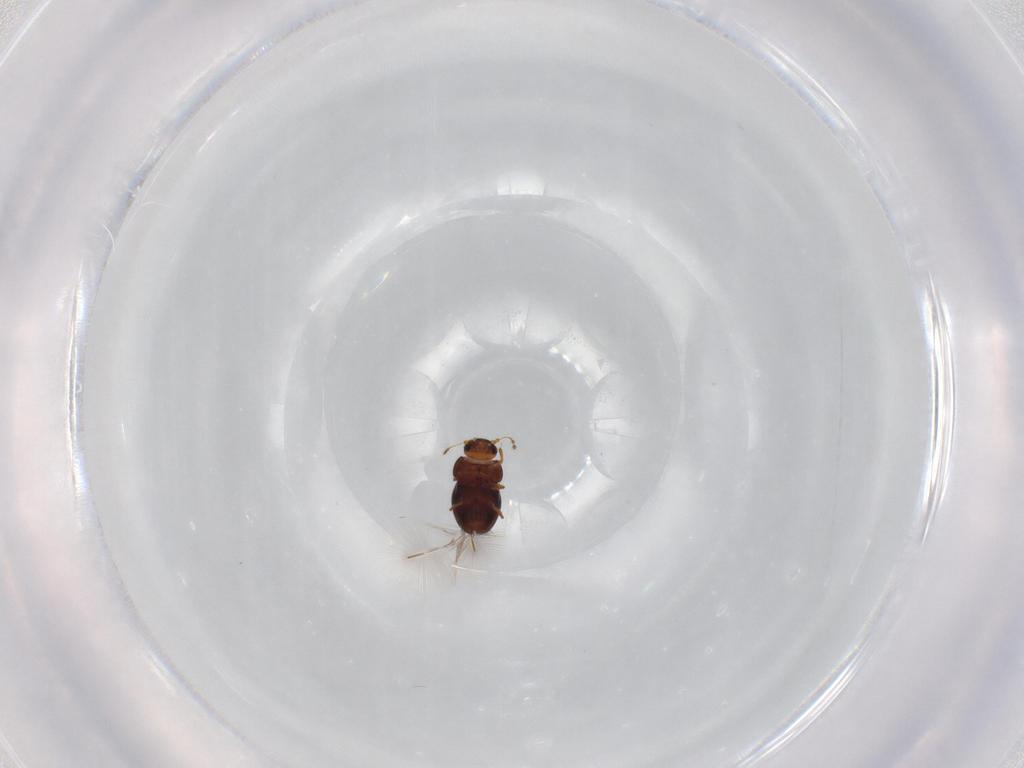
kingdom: Animalia
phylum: Arthropoda
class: Insecta
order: Coleoptera
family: Ptiliidae
